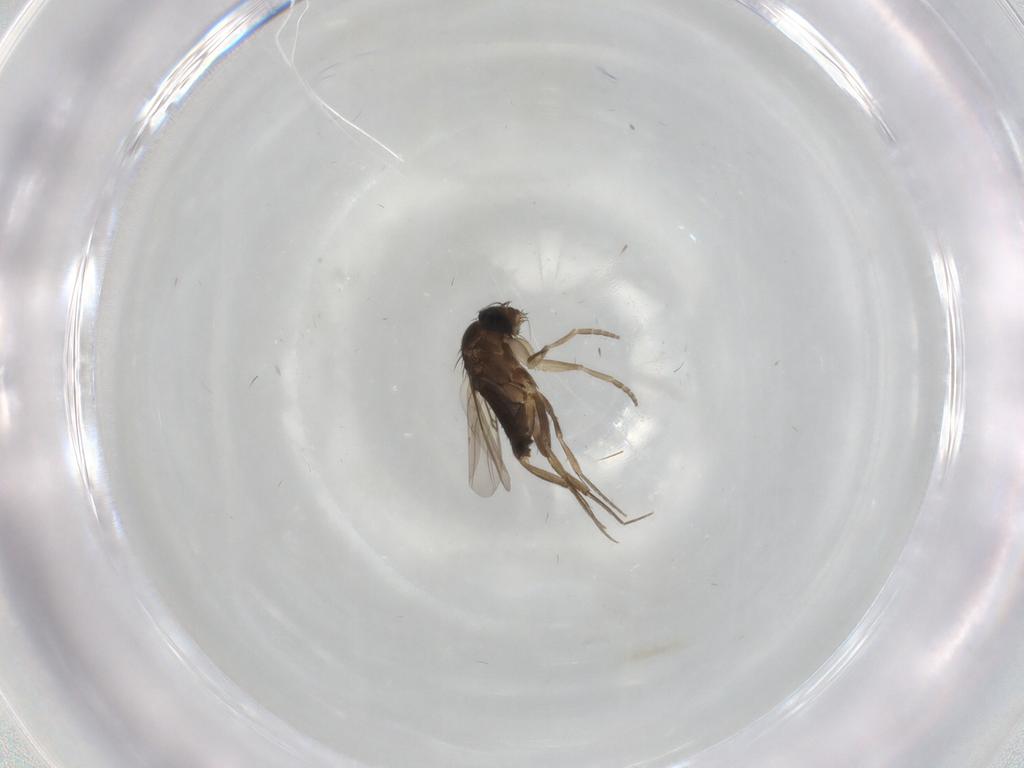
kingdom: Animalia
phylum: Arthropoda
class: Insecta
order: Diptera
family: Phoridae
